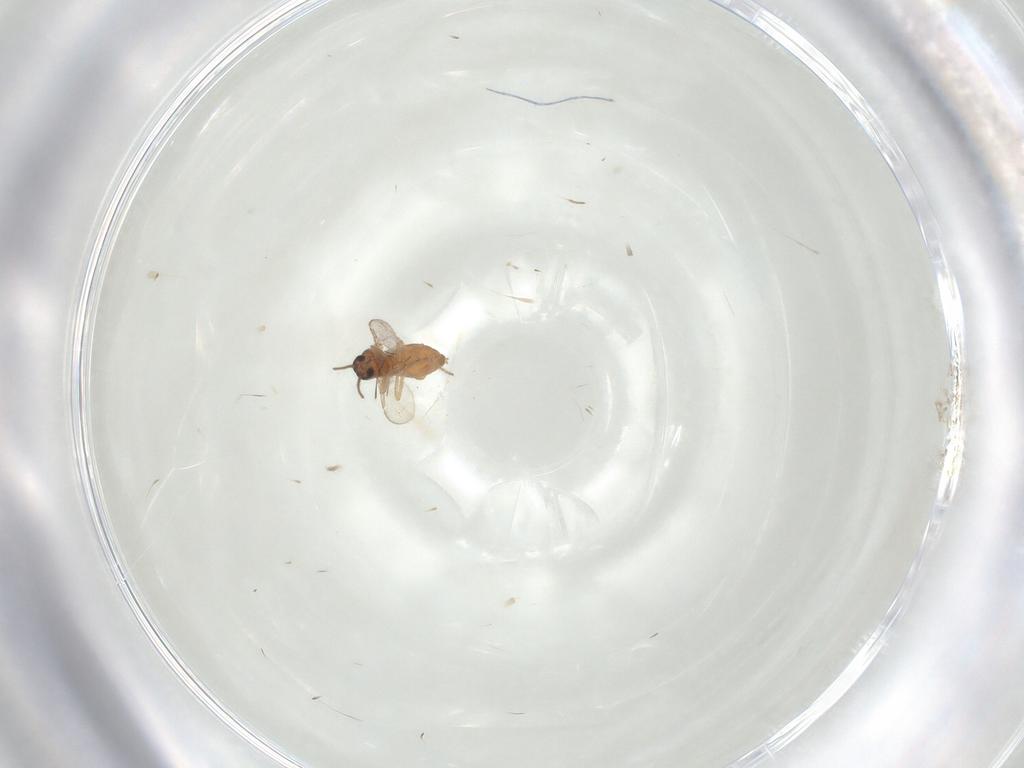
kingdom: Animalia
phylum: Arthropoda
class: Insecta
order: Diptera
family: Ceratopogonidae
